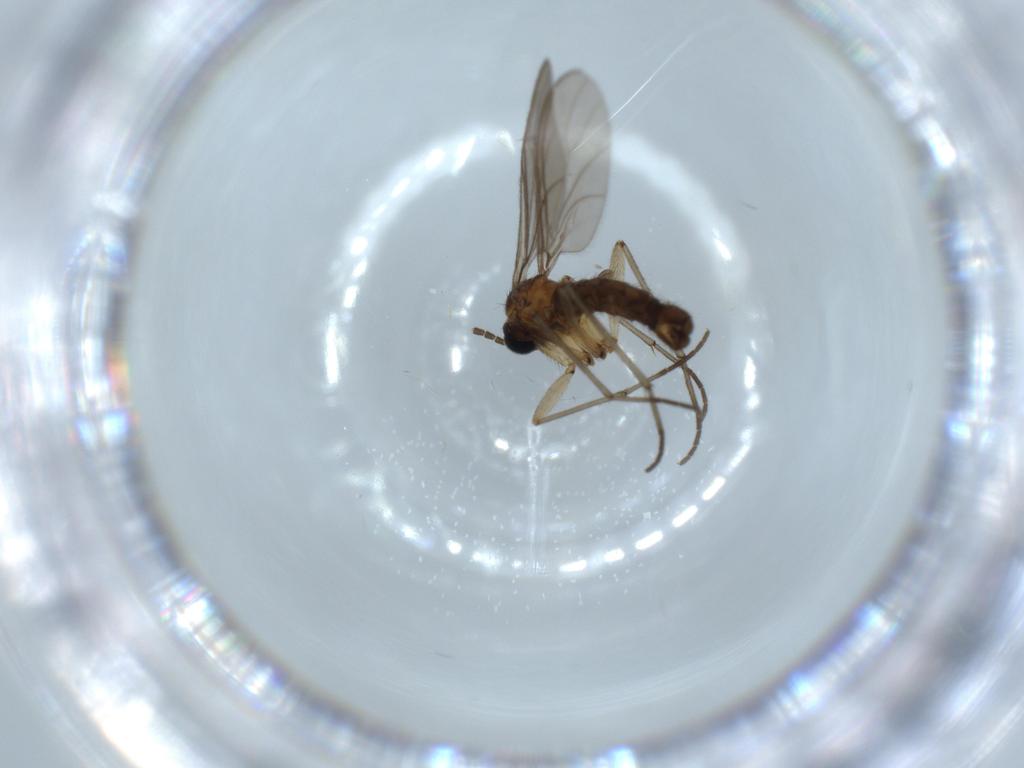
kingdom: Animalia
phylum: Arthropoda
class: Insecta
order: Diptera
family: Sciaridae
